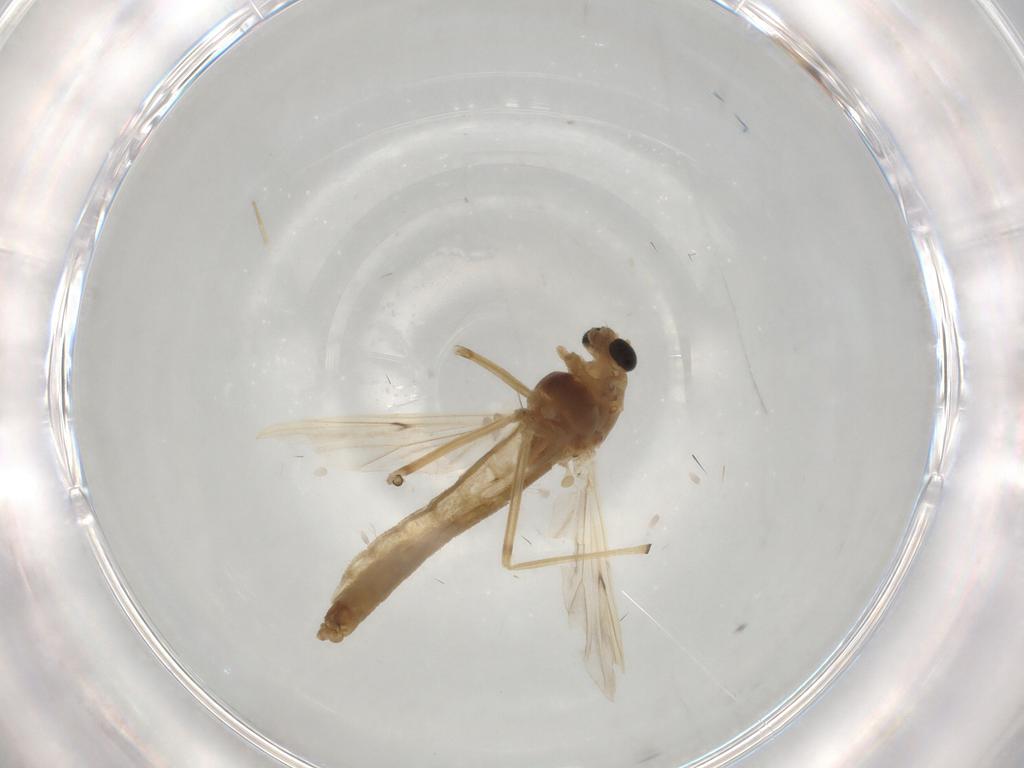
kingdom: Animalia
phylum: Arthropoda
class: Insecta
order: Diptera
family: Chironomidae
